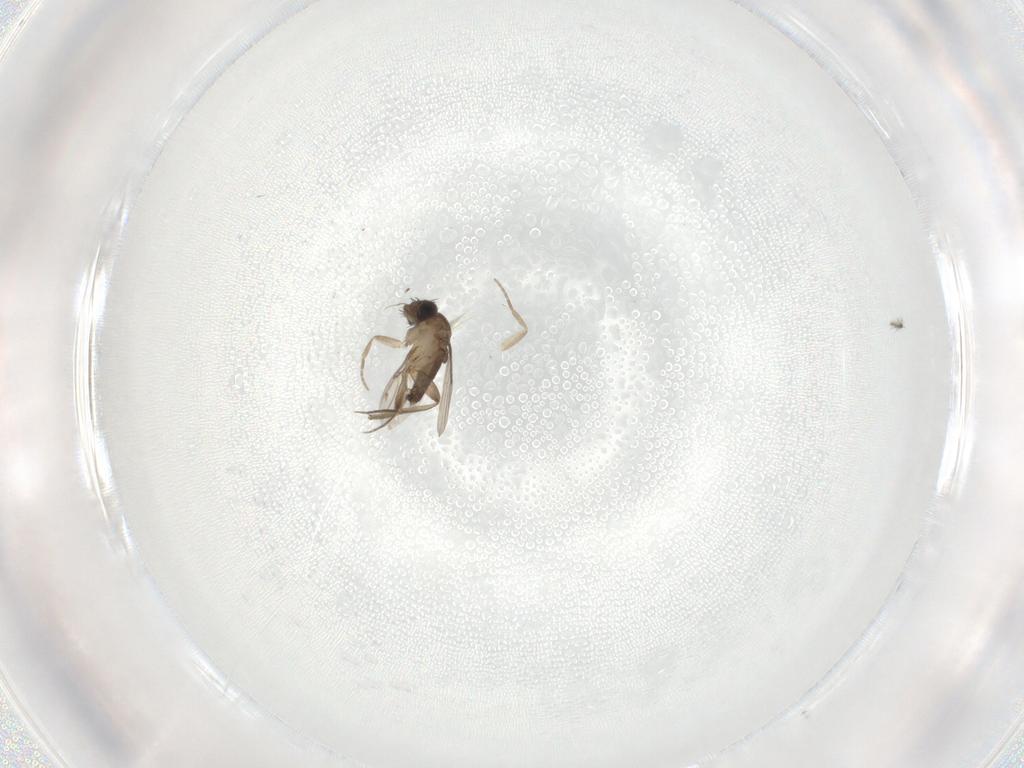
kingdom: Animalia
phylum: Arthropoda
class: Insecta
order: Diptera
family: Phoridae
